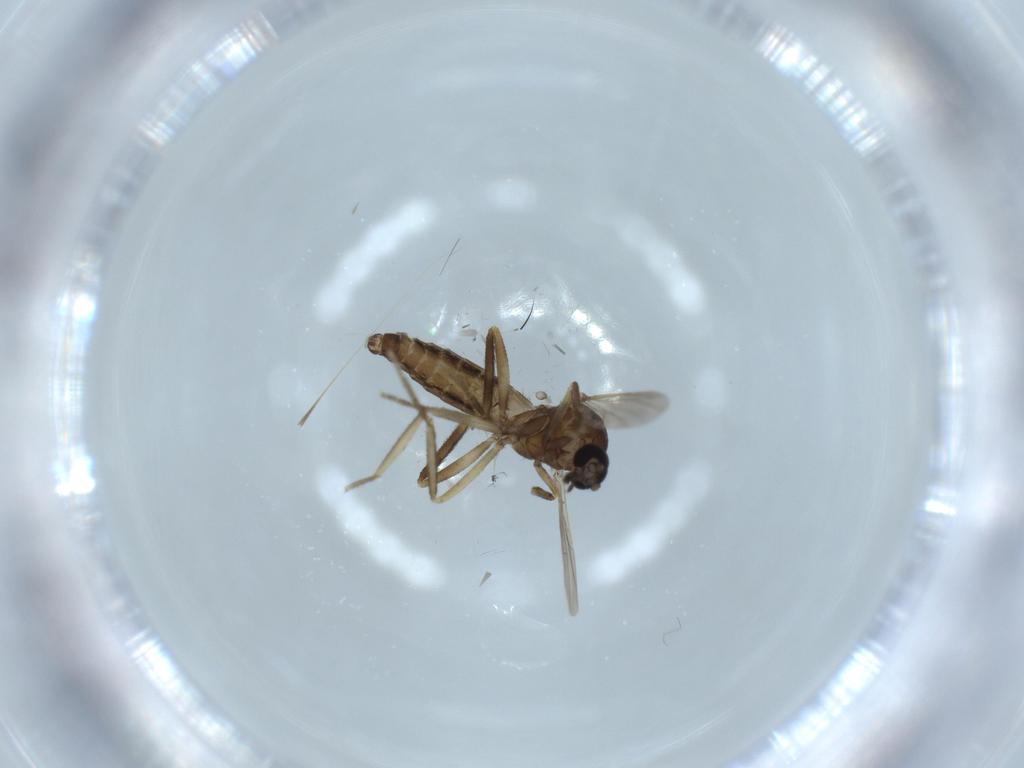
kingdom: Animalia
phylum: Arthropoda
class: Insecta
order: Diptera
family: Ceratopogonidae
